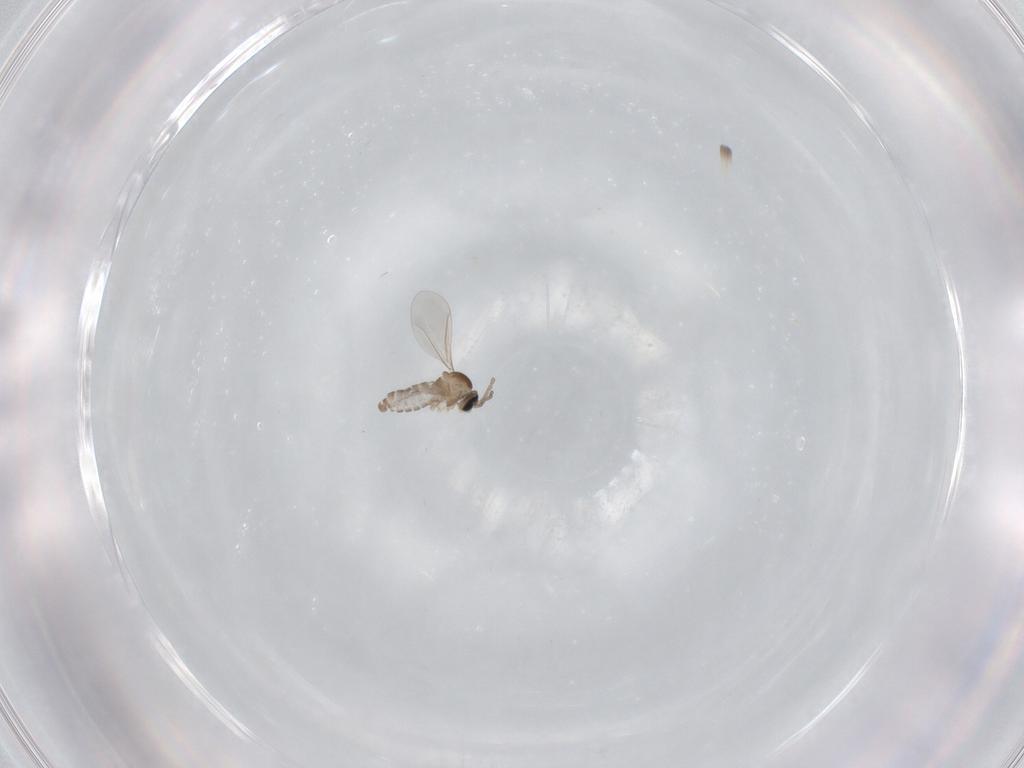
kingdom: Animalia
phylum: Arthropoda
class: Insecta
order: Diptera
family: Cecidomyiidae
